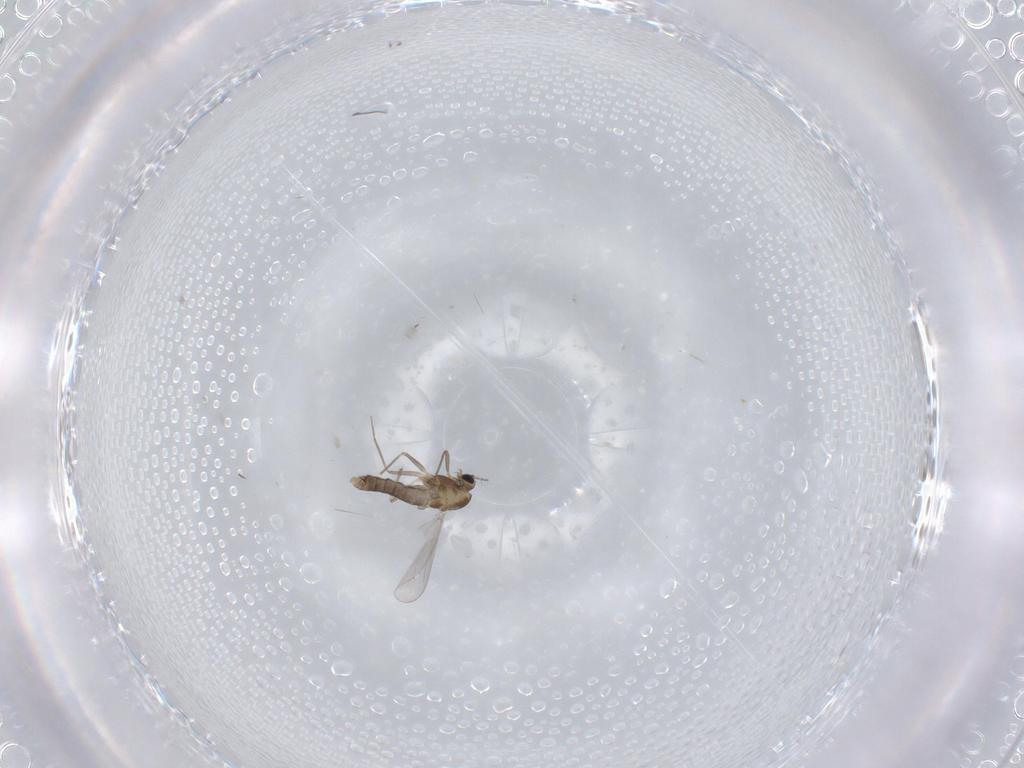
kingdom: Animalia
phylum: Arthropoda
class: Insecta
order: Diptera
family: Chironomidae
